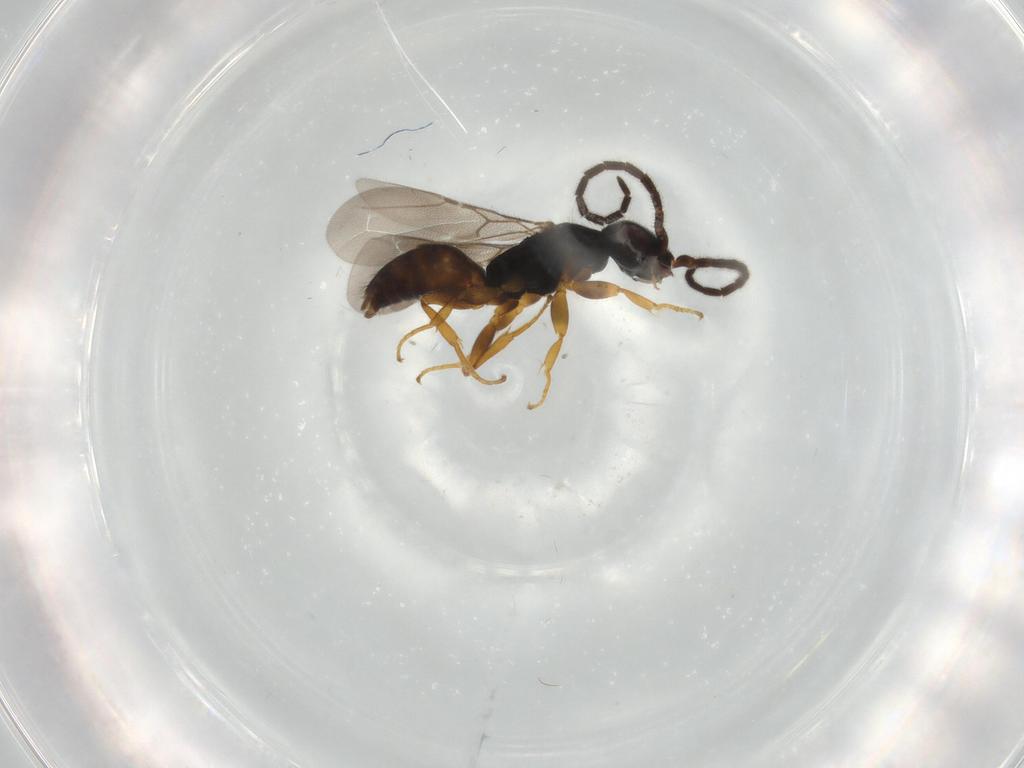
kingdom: Animalia
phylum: Arthropoda
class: Insecta
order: Hymenoptera
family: Bethylidae
